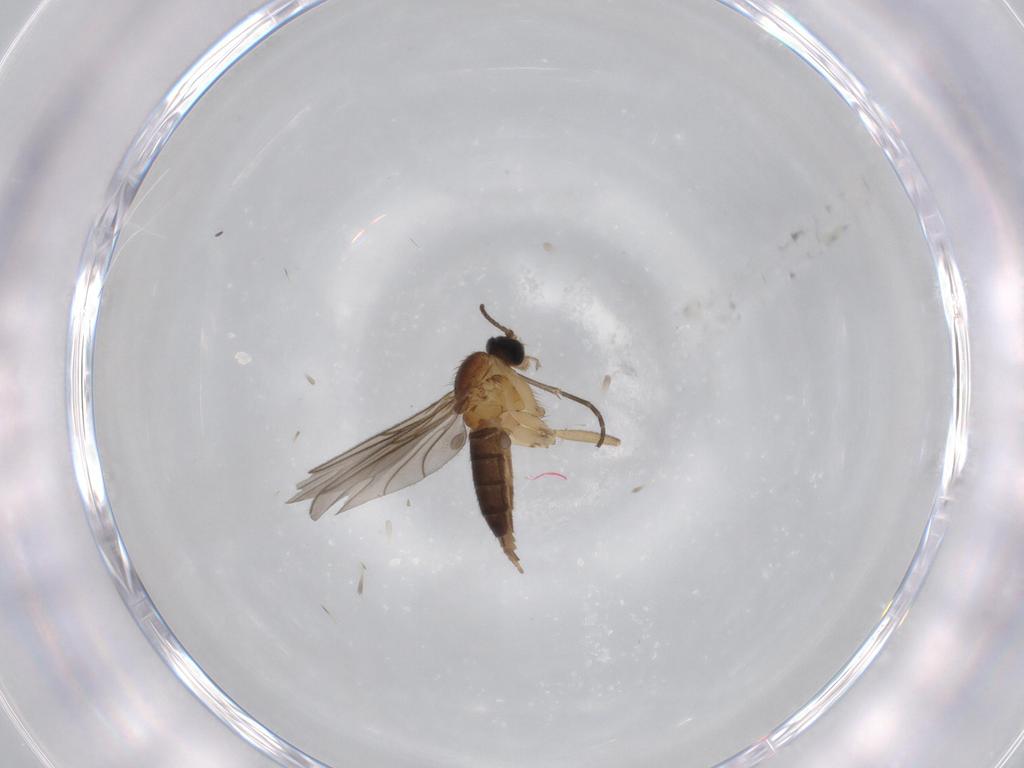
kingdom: Animalia
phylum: Arthropoda
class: Insecta
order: Diptera
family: Sciaridae
